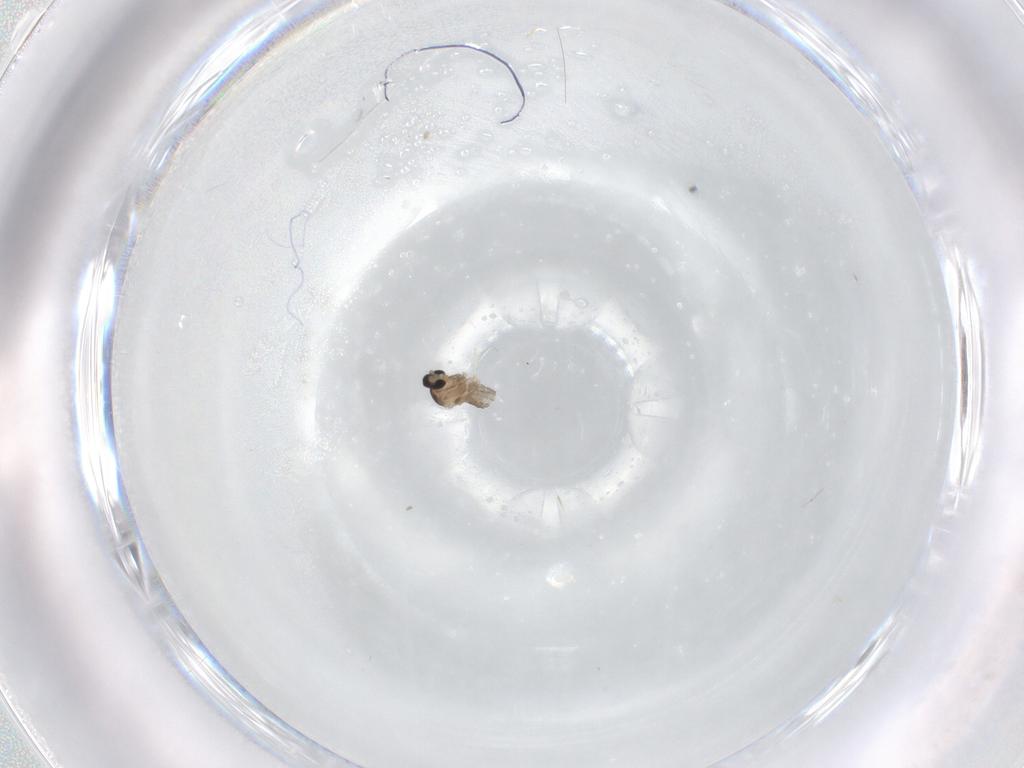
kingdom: Animalia
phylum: Arthropoda
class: Insecta
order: Diptera
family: Cecidomyiidae
